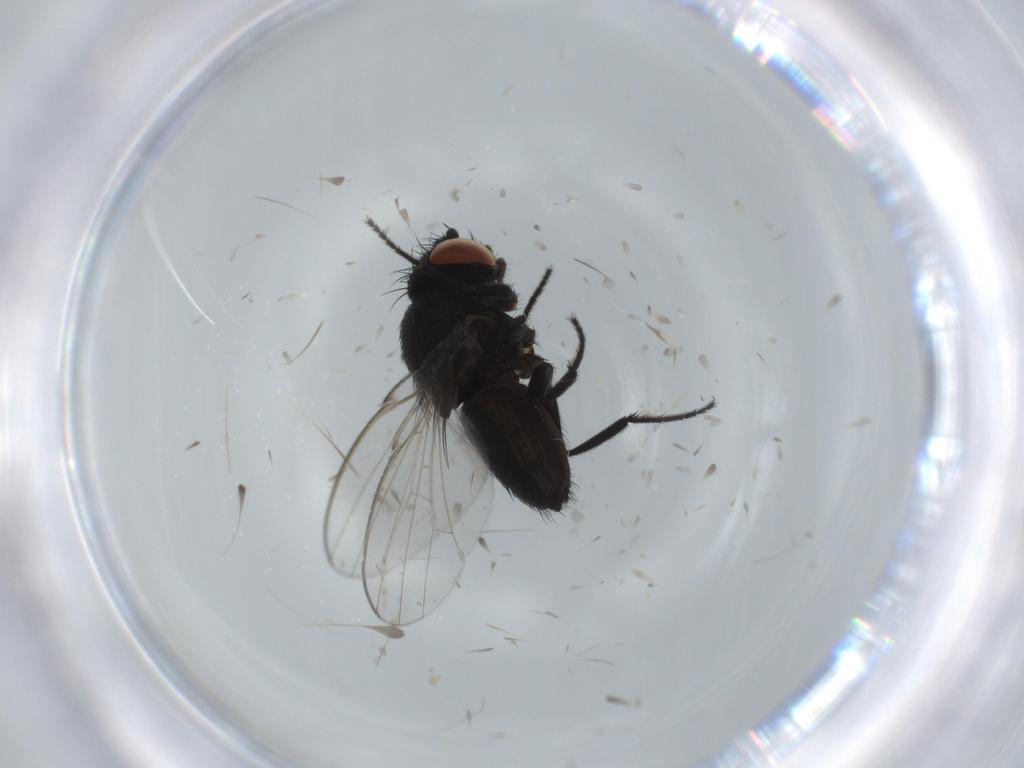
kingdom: Animalia
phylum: Arthropoda
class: Insecta
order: Diptera
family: Milichiidae
